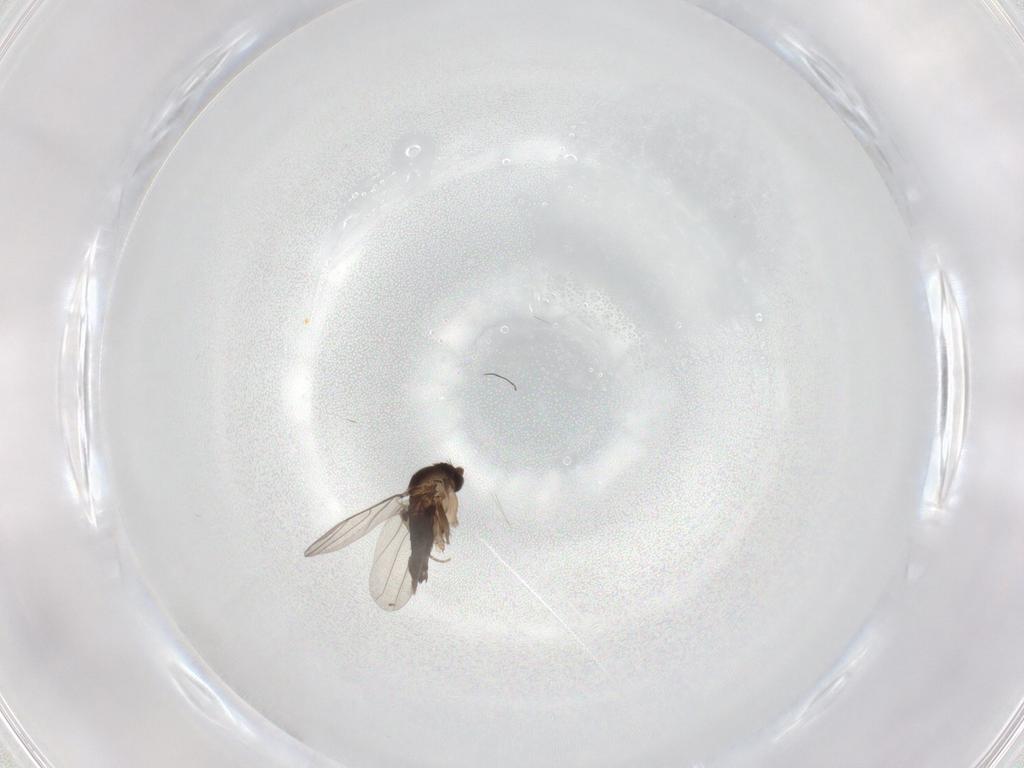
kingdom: Animalia
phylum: Arthropoda
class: Insecta
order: Diptera
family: Phoridae
